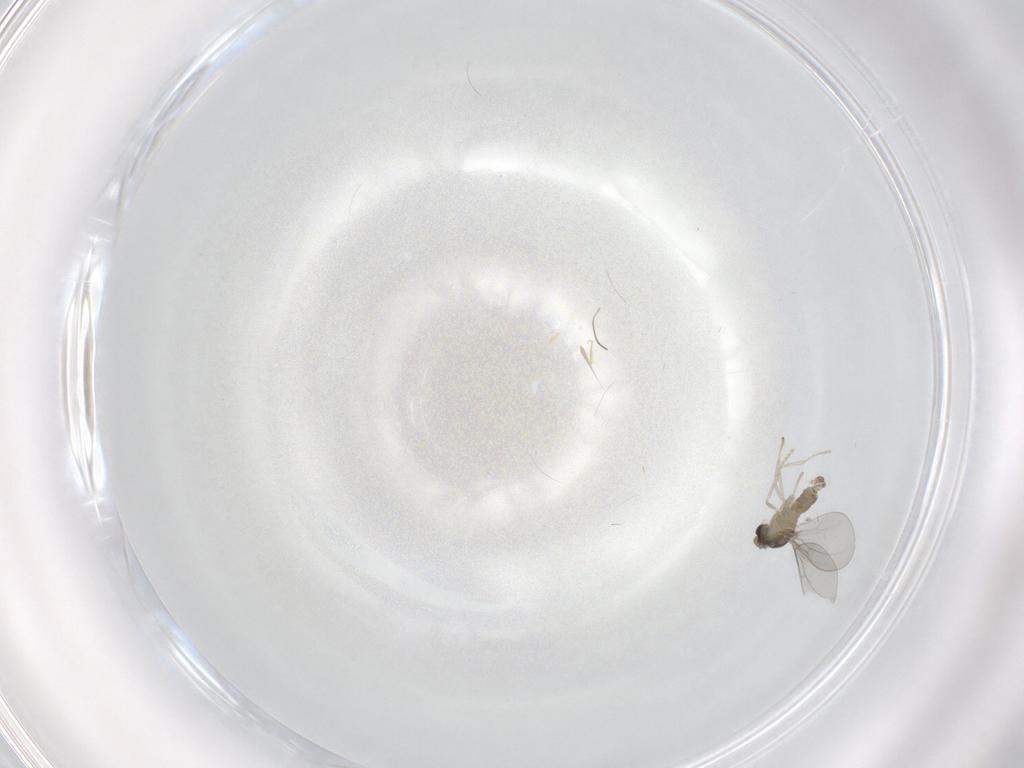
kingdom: Animalia
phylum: Arthropoda
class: Insecta
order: Diptera
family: Cecidomyiidae
